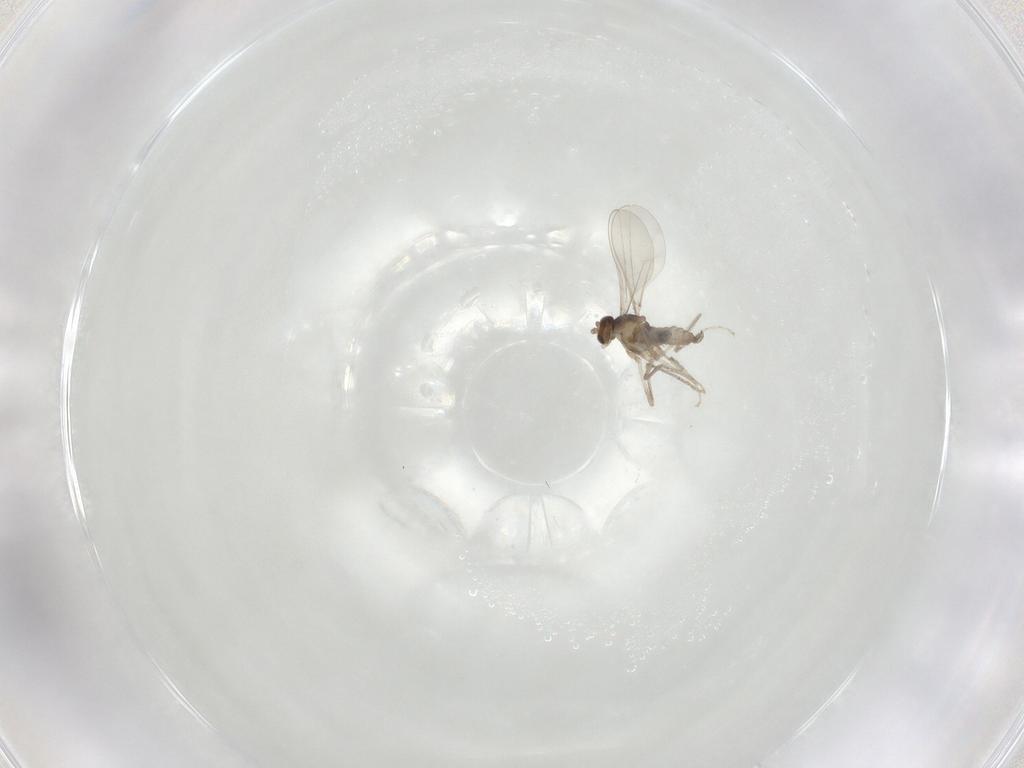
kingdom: Animalia
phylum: Arthropoda
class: Insecta
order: Diptera
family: Cecidomyiidae
